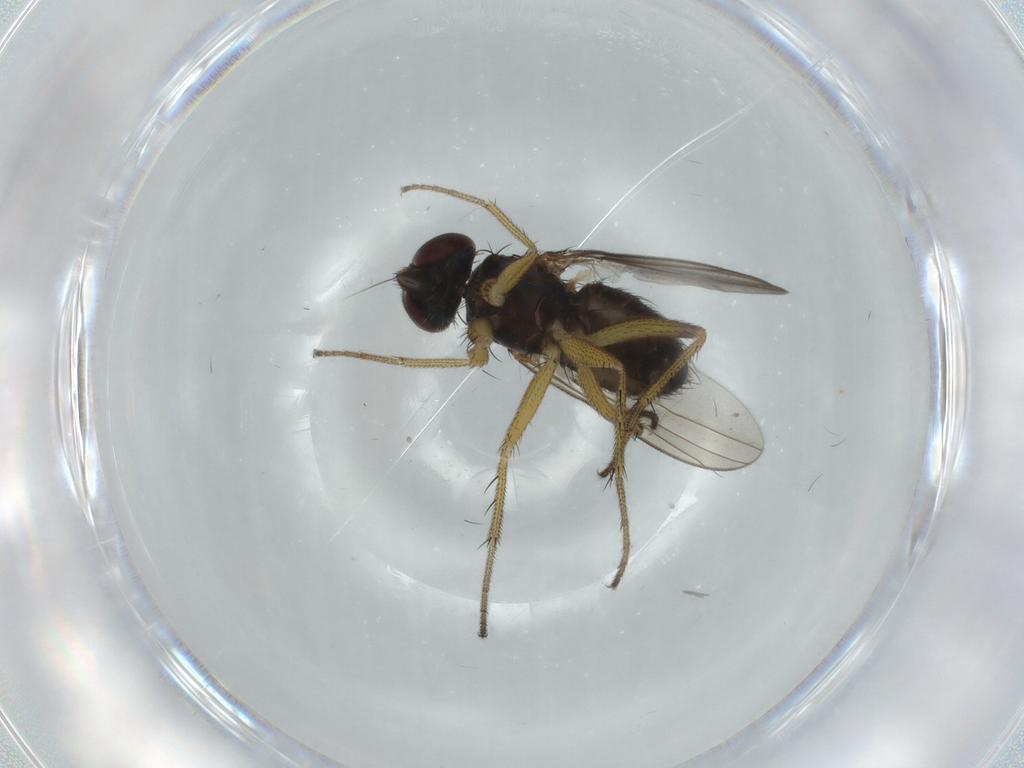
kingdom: Animalia
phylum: Arthropoda
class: Insecta
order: Diptera
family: Dolichopodidae
